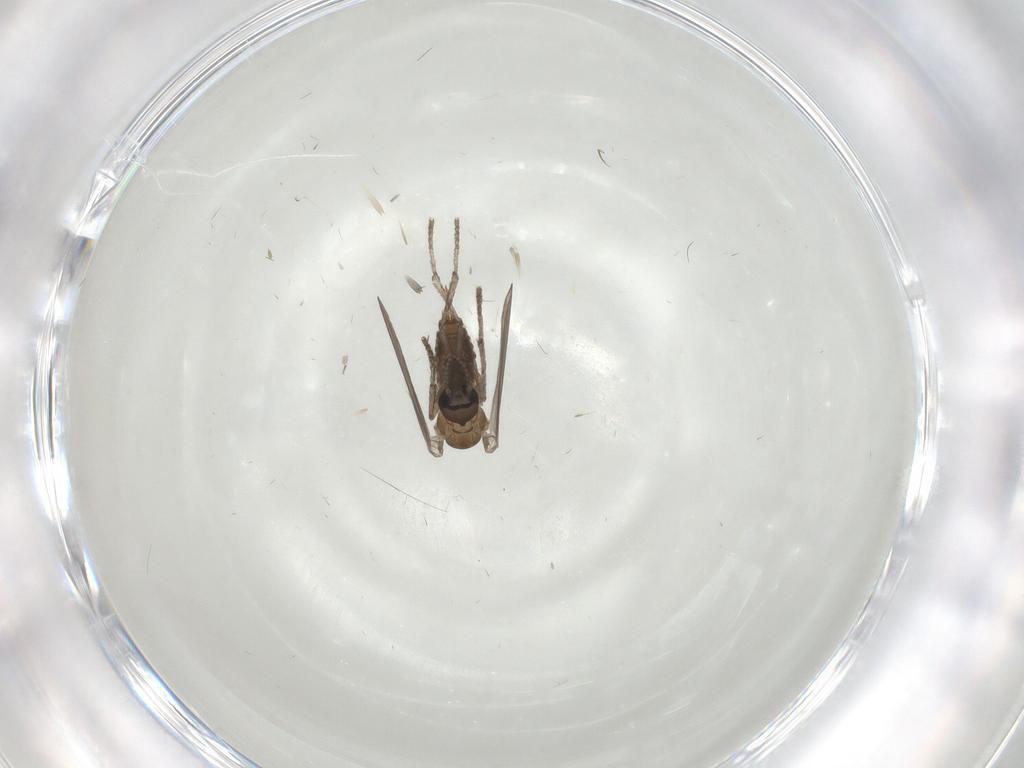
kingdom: Animalia
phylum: Arthropoda
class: Insecta
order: Diptera
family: Psychodidae
